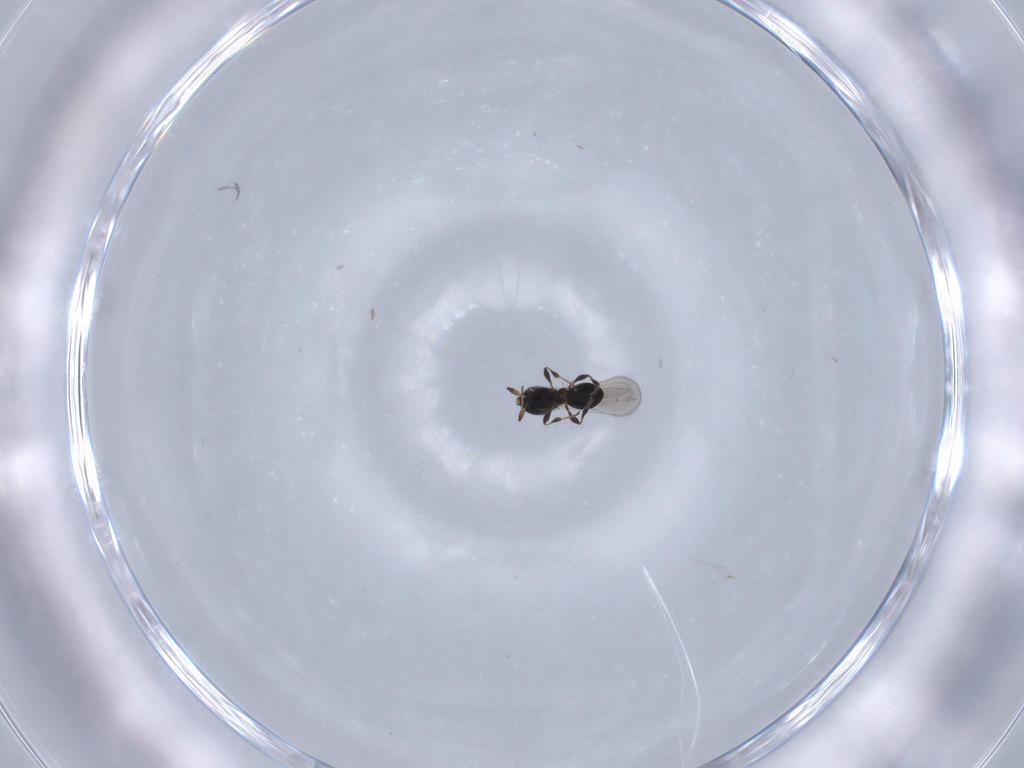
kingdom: Animalia
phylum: Arthropoda
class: Insecta
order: Hymenoptera
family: Platygastridae
